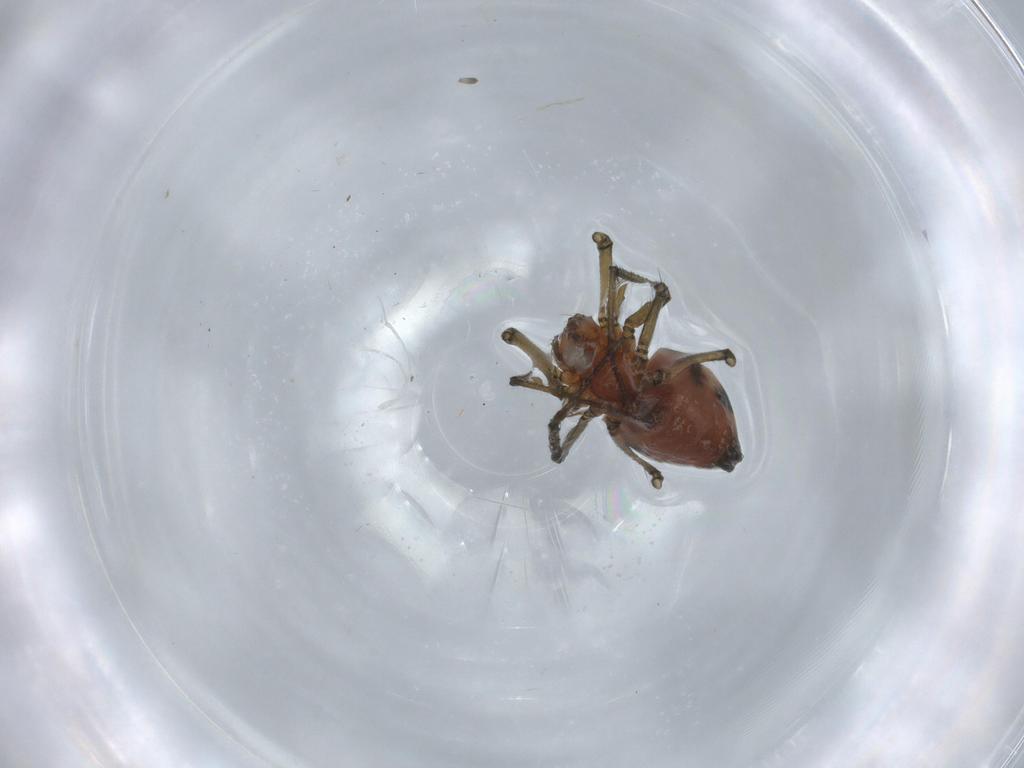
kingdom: Animalia
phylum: Arthropoda
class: Arachnida
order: Araneae
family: Linyphiidae
